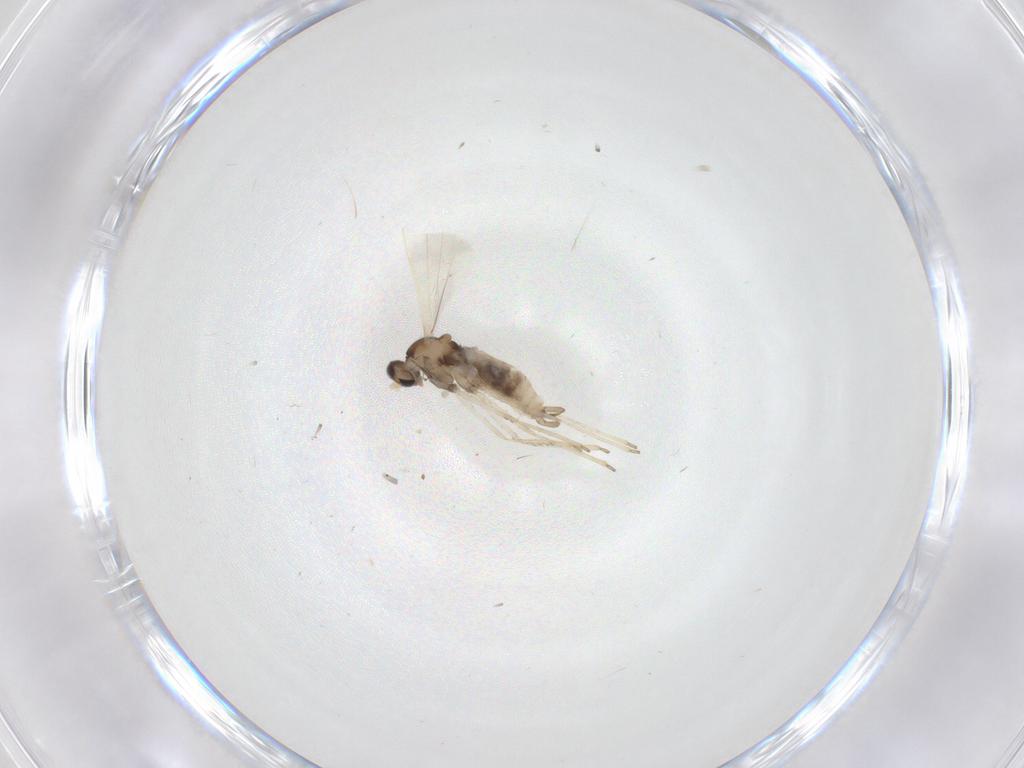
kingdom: Animalia
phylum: Arthropoda
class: Insecta
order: Diptera
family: Cecidomyiidae
